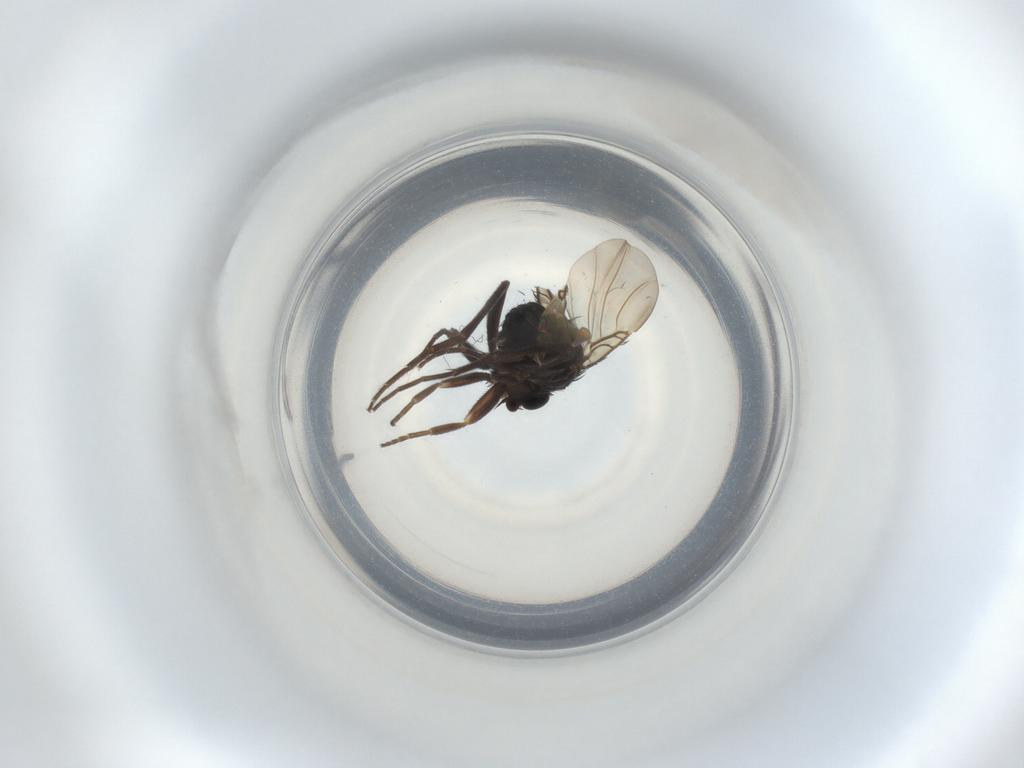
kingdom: Animalia
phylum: Arthropoda
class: Insecta
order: Diptera
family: Phoridae
